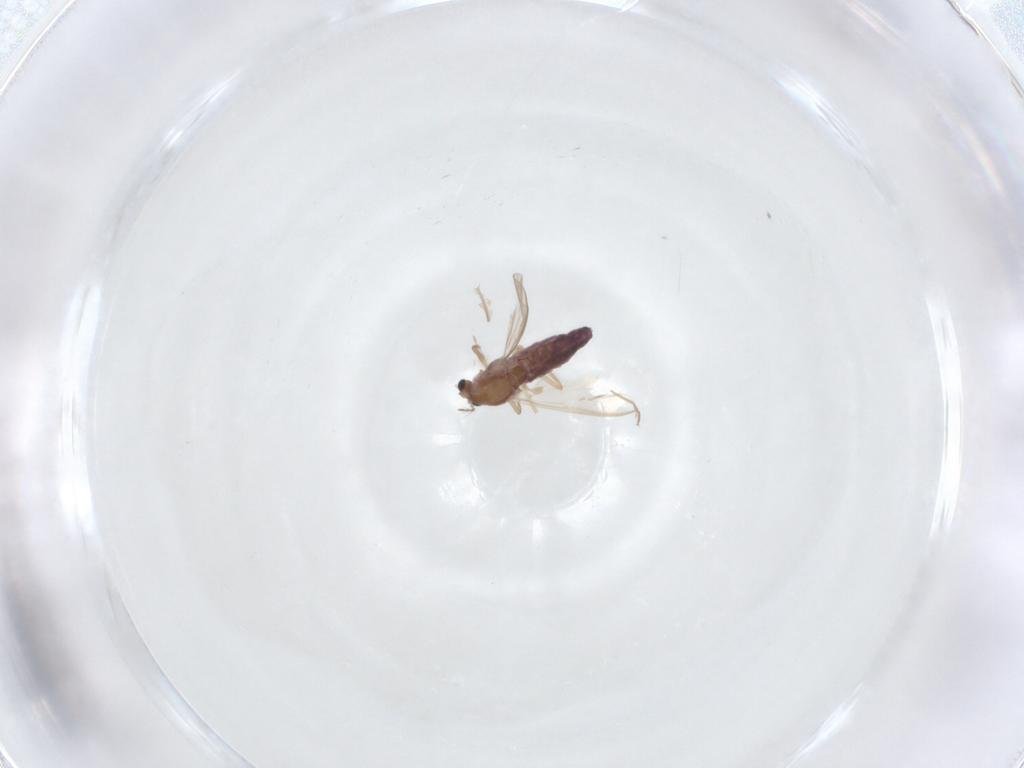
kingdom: Animalia
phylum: Arthropoda
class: Insecta
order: Diptera
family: Chironomidae
